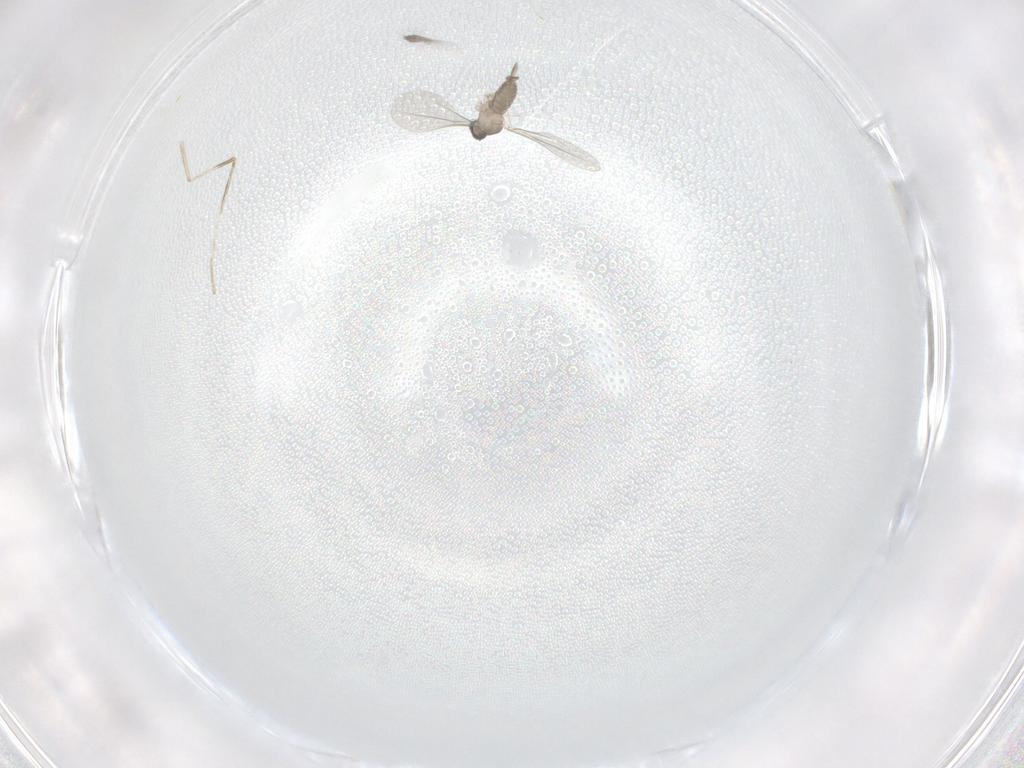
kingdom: Animalia
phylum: Arthropoda
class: Insecta
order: Diptera
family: Cecidomyiidae
